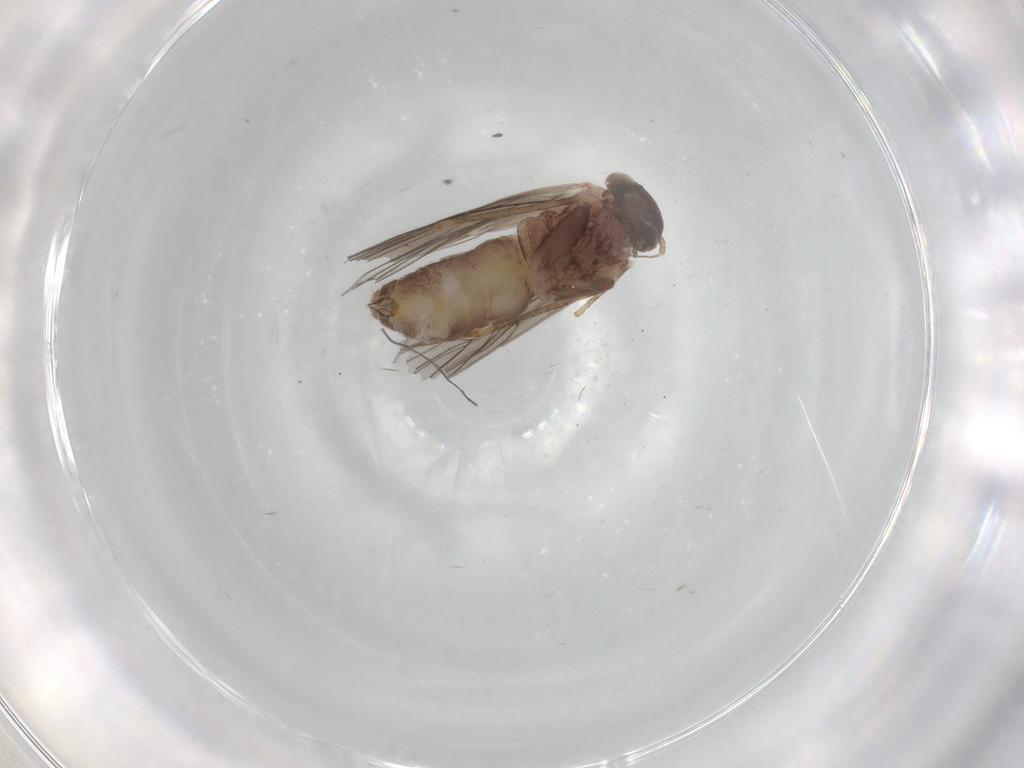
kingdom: Animalia
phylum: Arthropoda
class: Insecta
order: Psocodea
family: Lepidopsocidae
